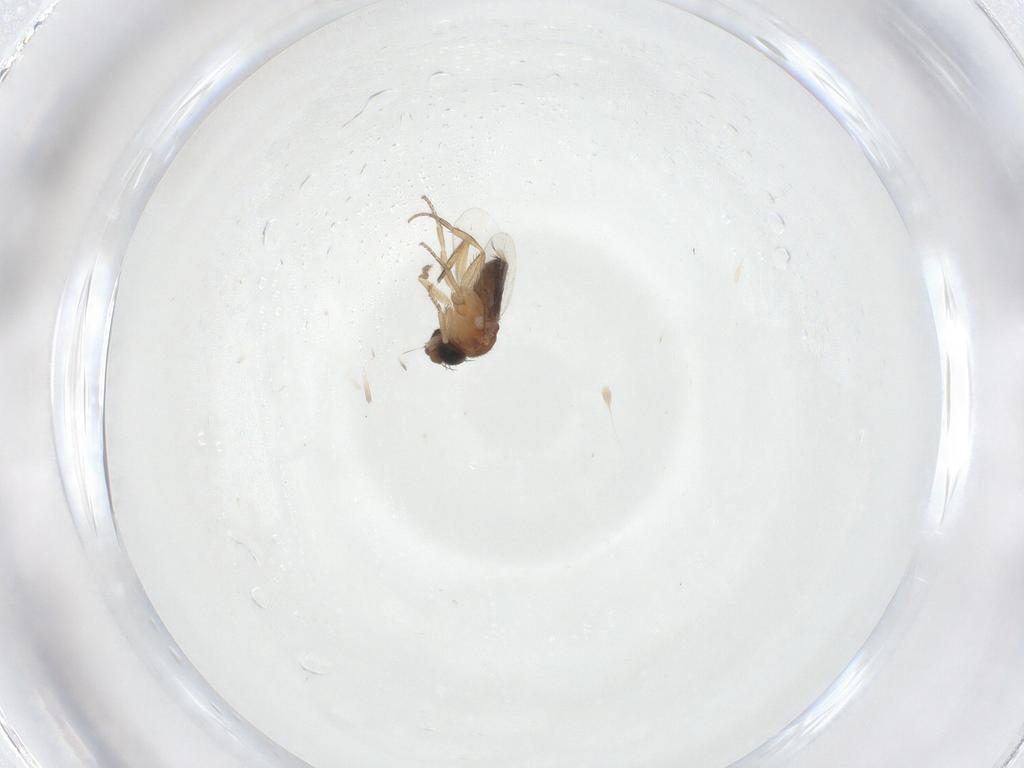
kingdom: Animalia
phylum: Arthropoda
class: Insecta
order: Diptera
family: Phoridae
